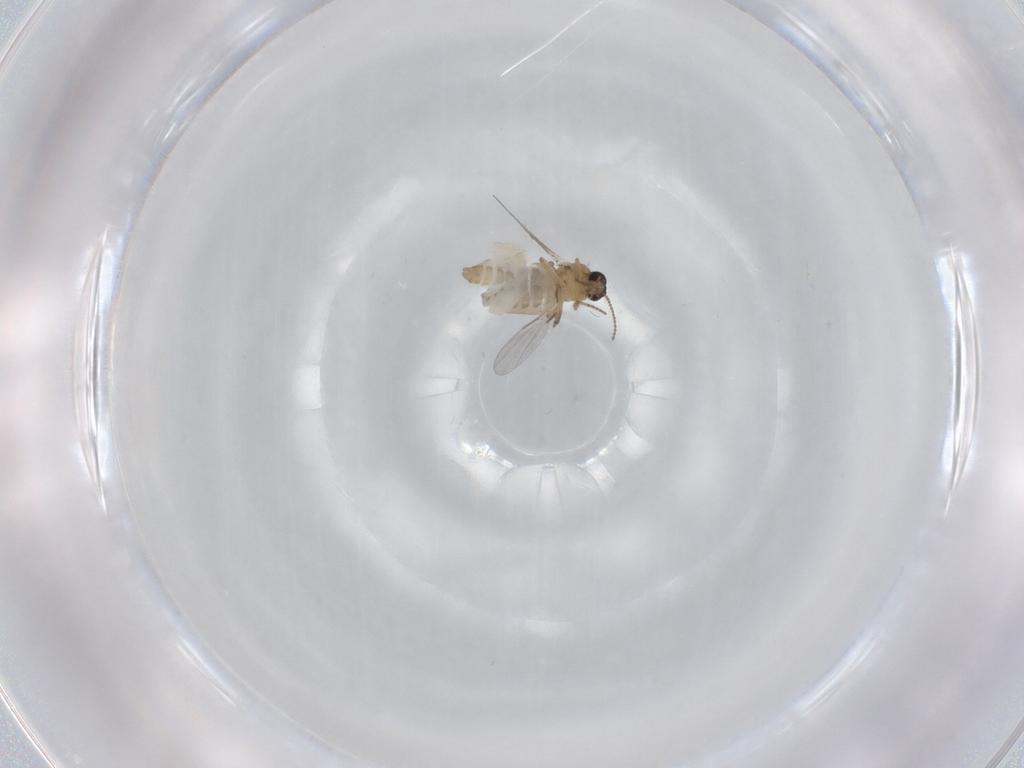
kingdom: Animalia
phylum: Arthropoda
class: Insecta
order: Diptera
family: Ceratopogonidae
